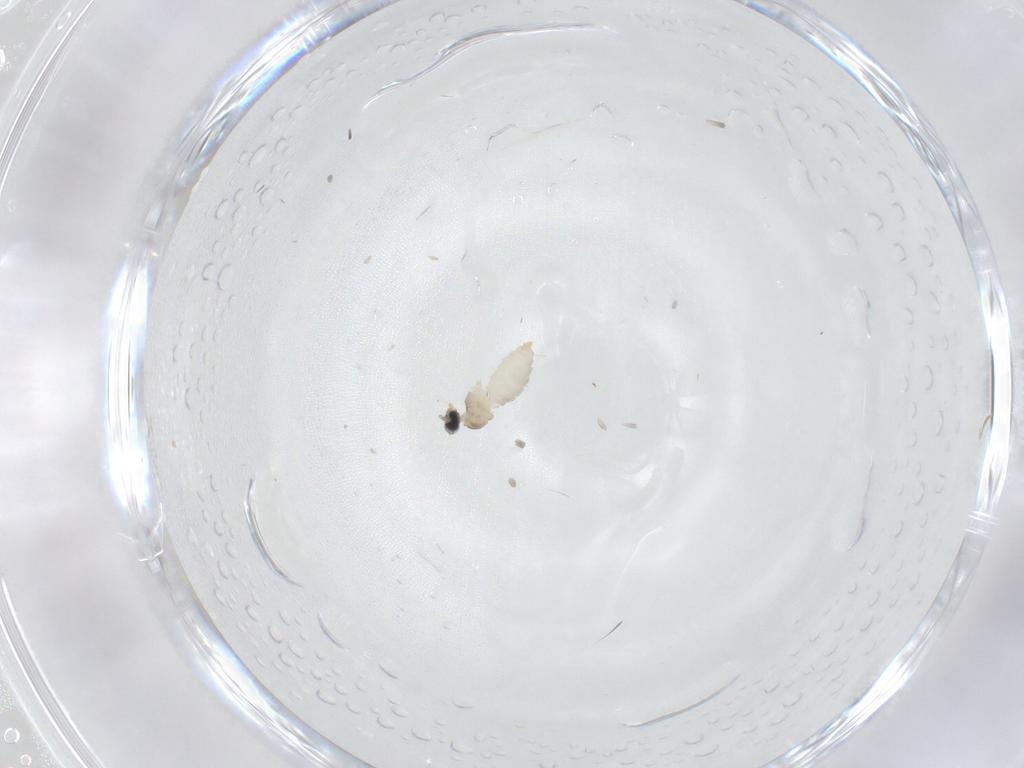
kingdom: Animalia
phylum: Arthropoda
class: Insecta
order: Diptera
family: Cecidomyiidae
